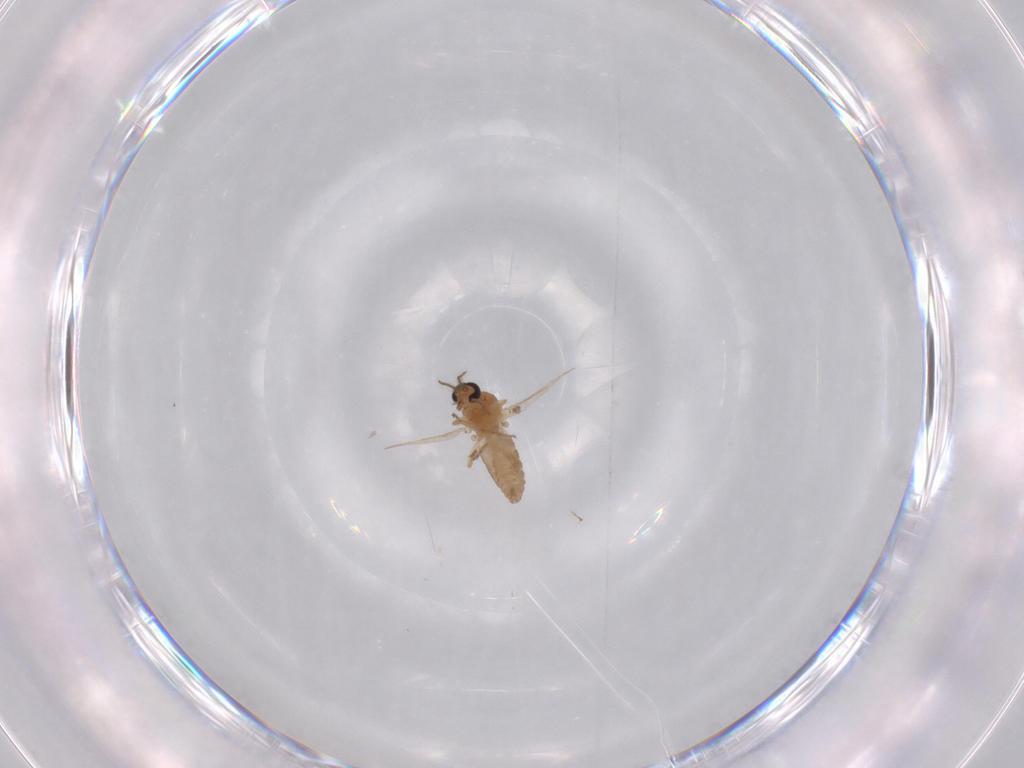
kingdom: Animalia
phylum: Arthropoda
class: Insecta
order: Diptera
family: Ceratopogonidae
